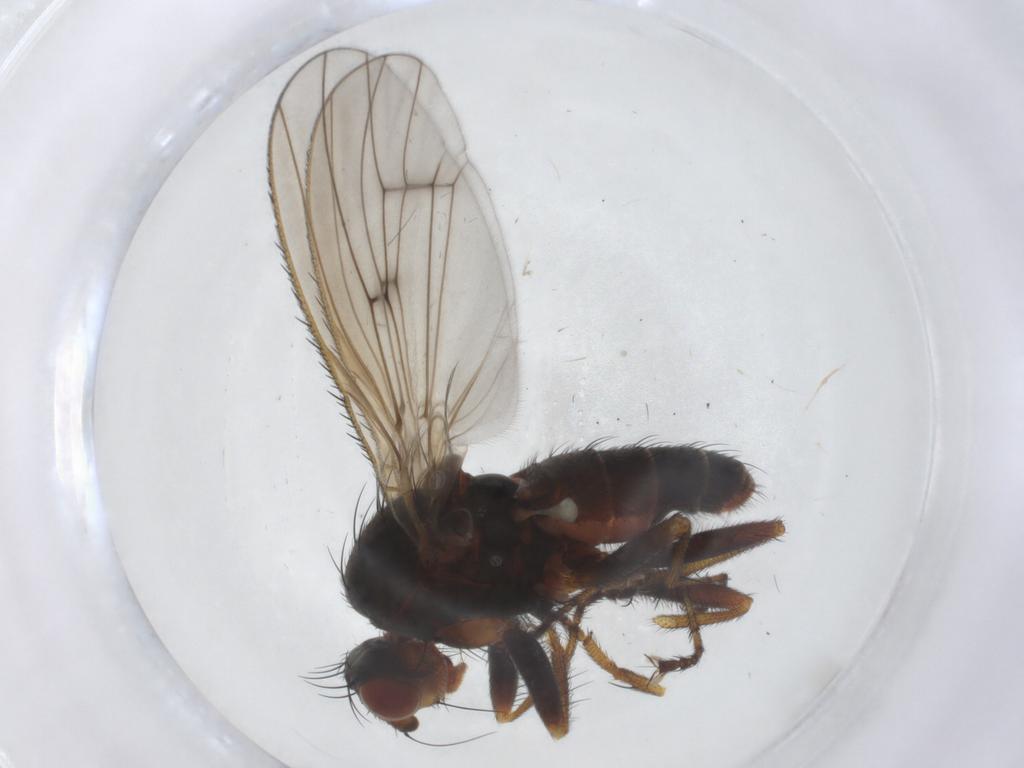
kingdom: Animalia
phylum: Arthropoda
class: Insecta
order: Diptera
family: Heleomyzidae
